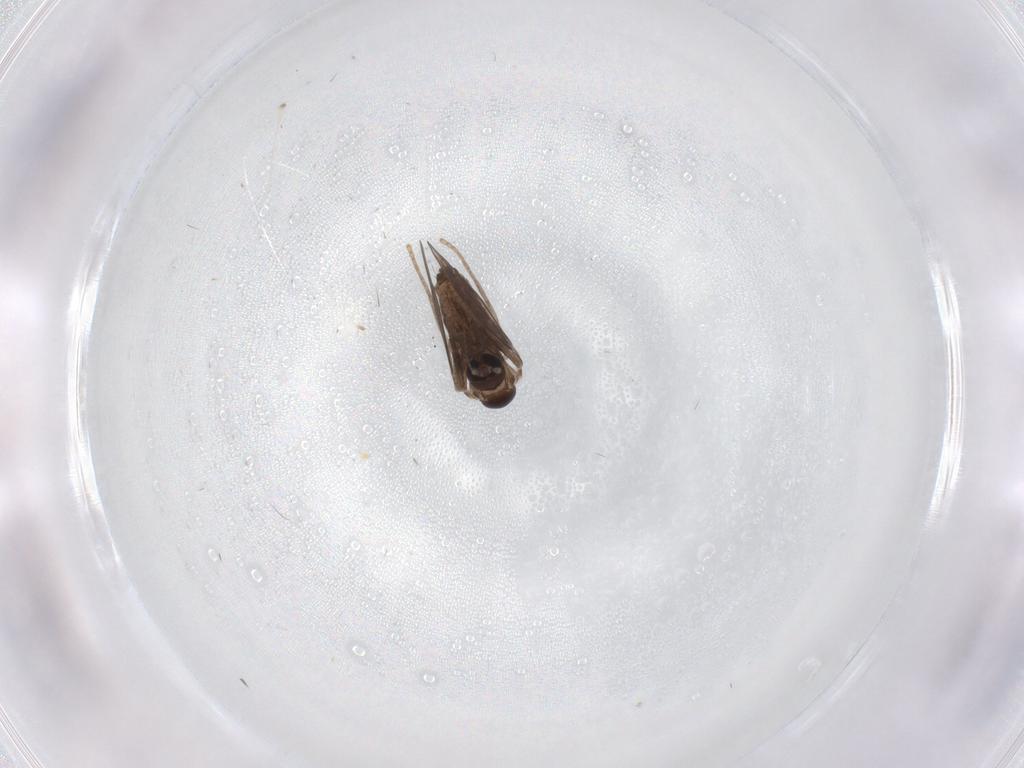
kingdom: Animalia
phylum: Arthropoda
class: Insecta
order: Diptera
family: Psychodidae
